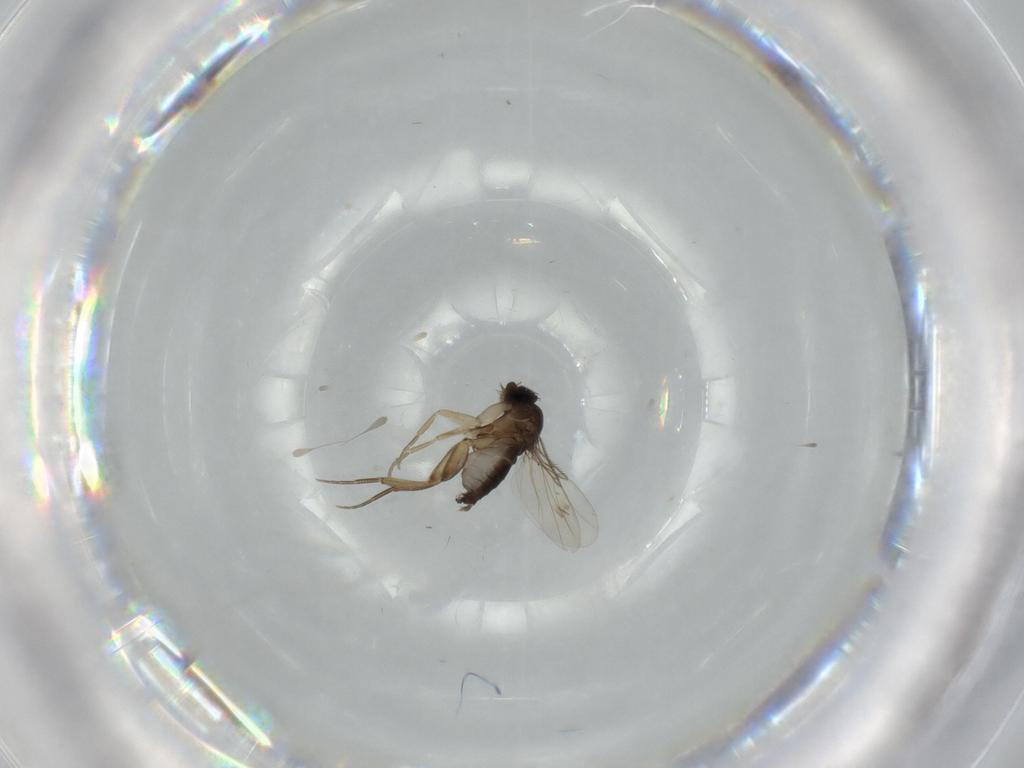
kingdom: Animalia
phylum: Arthropoda
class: Insecta
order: Diptera
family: Phoridae
